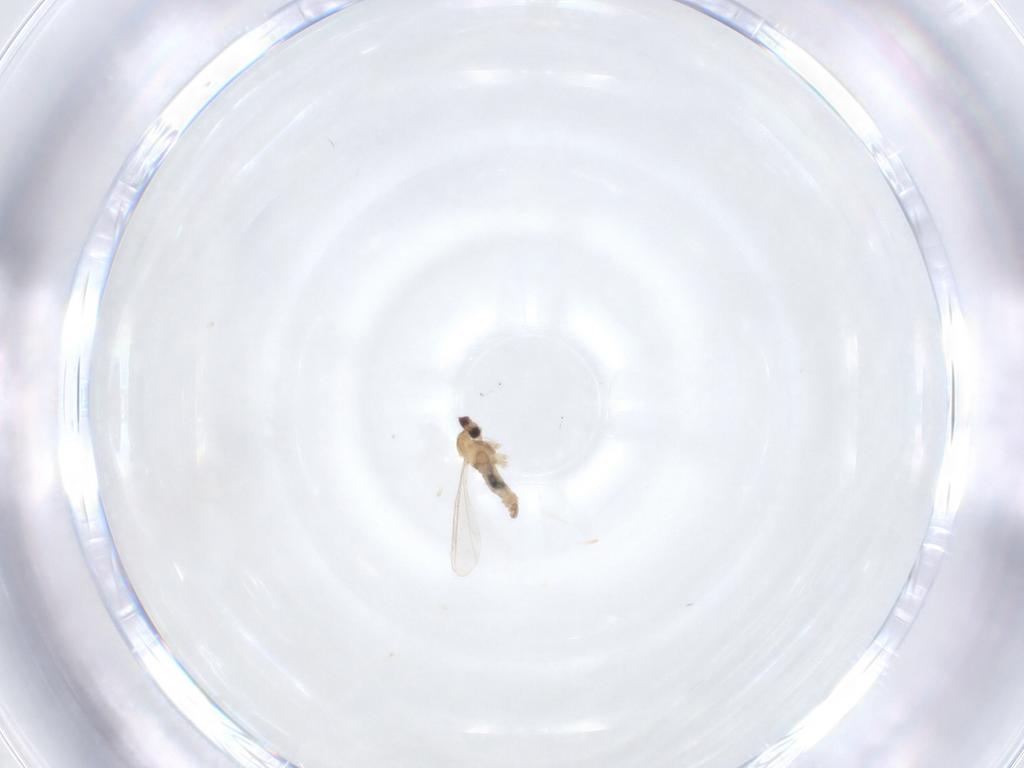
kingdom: Animalia
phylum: Arthropoda
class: Insecta
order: Diptera
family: Cecidomyiidae
